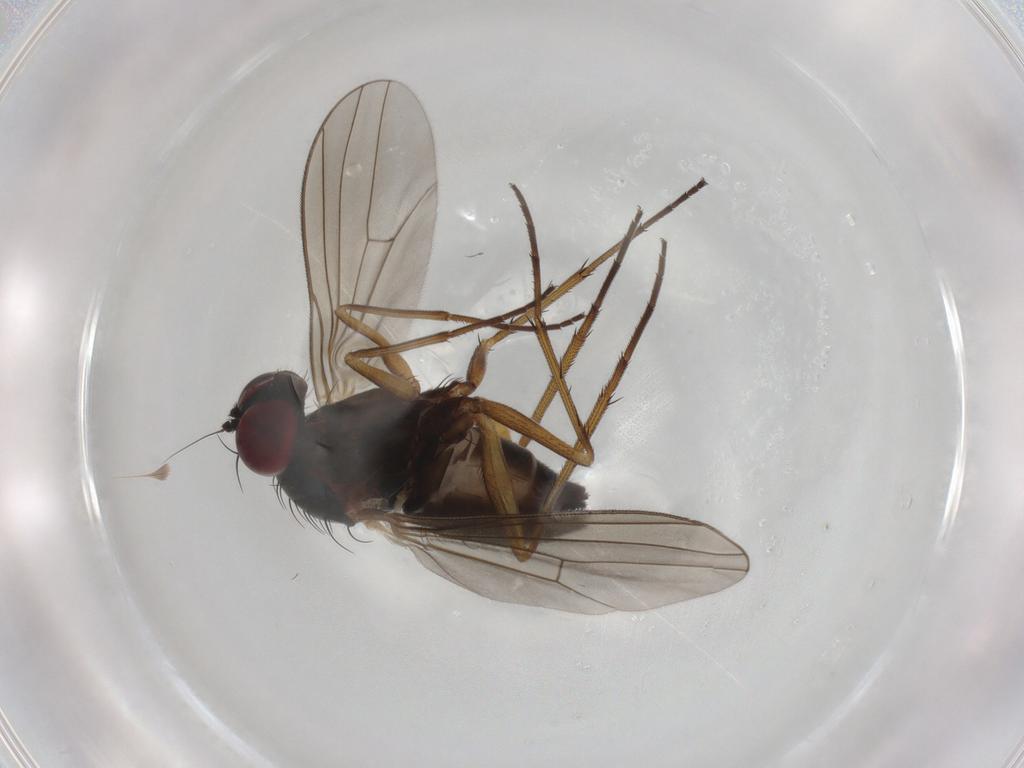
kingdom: Animalia
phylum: Arthropoda
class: Insecta
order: Diptera
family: Dolichopodidae
